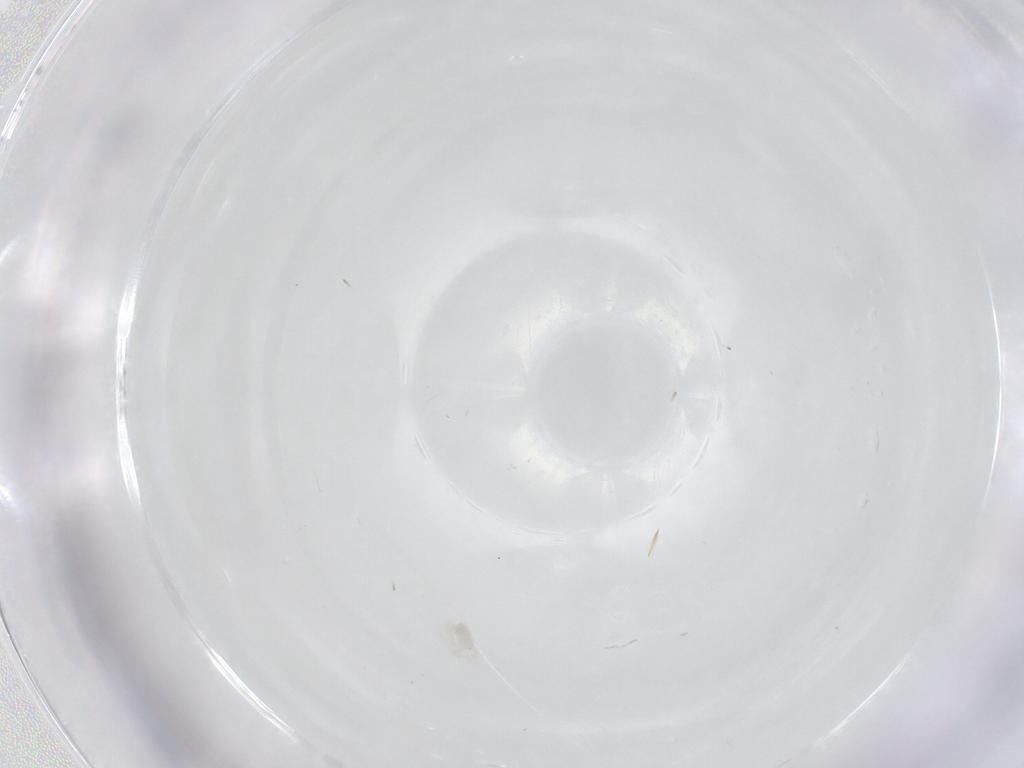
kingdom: Animalia
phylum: Arthropoda
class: Arachnida
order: Trombidiformes
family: Anystidae
